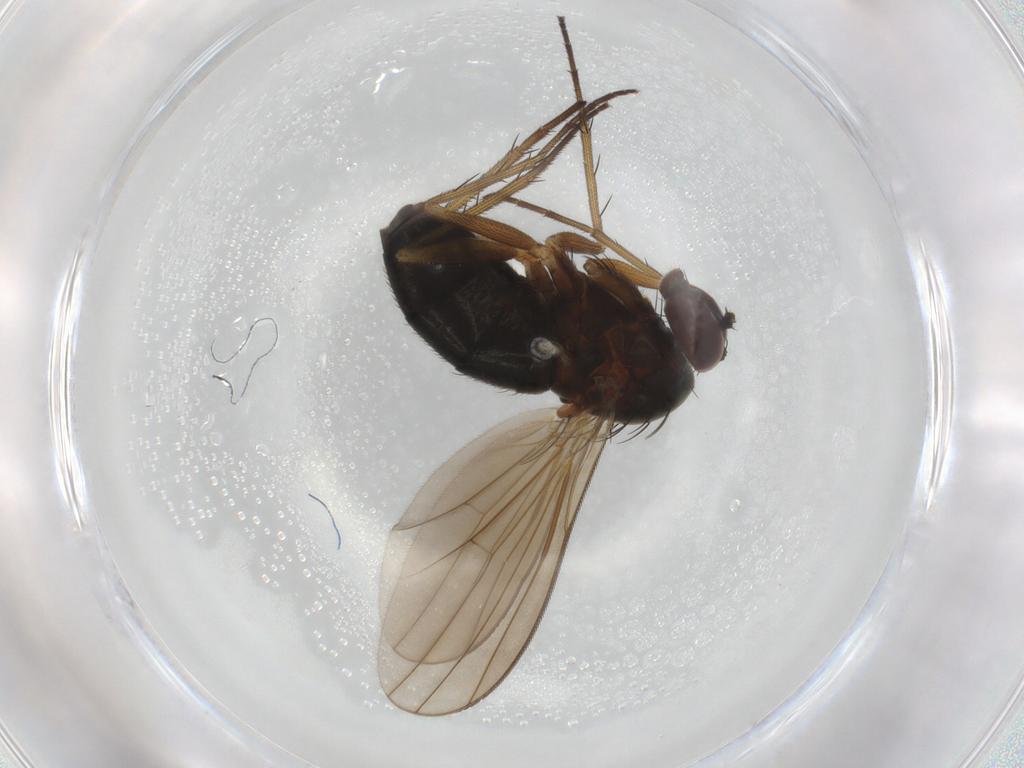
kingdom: Animalia
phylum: Arthropoda
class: Insecta
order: Diptera
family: Dolichopodidae
